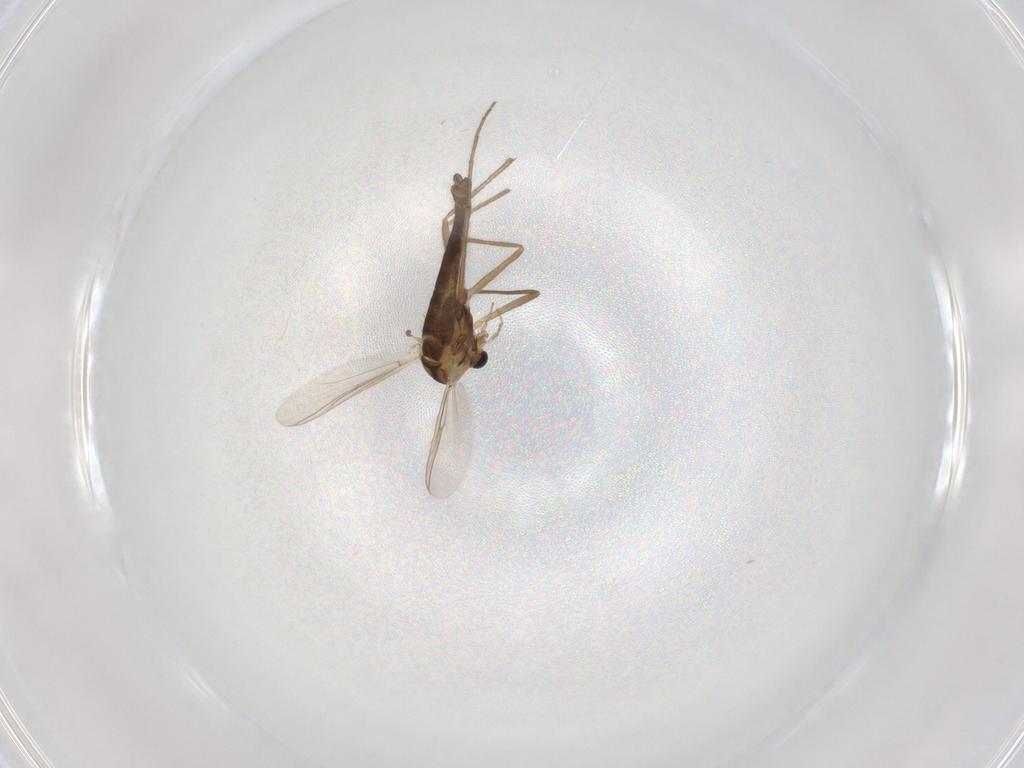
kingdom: Animalia
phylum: Arthropoda
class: Insecta
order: Diptera
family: Chironomidae
